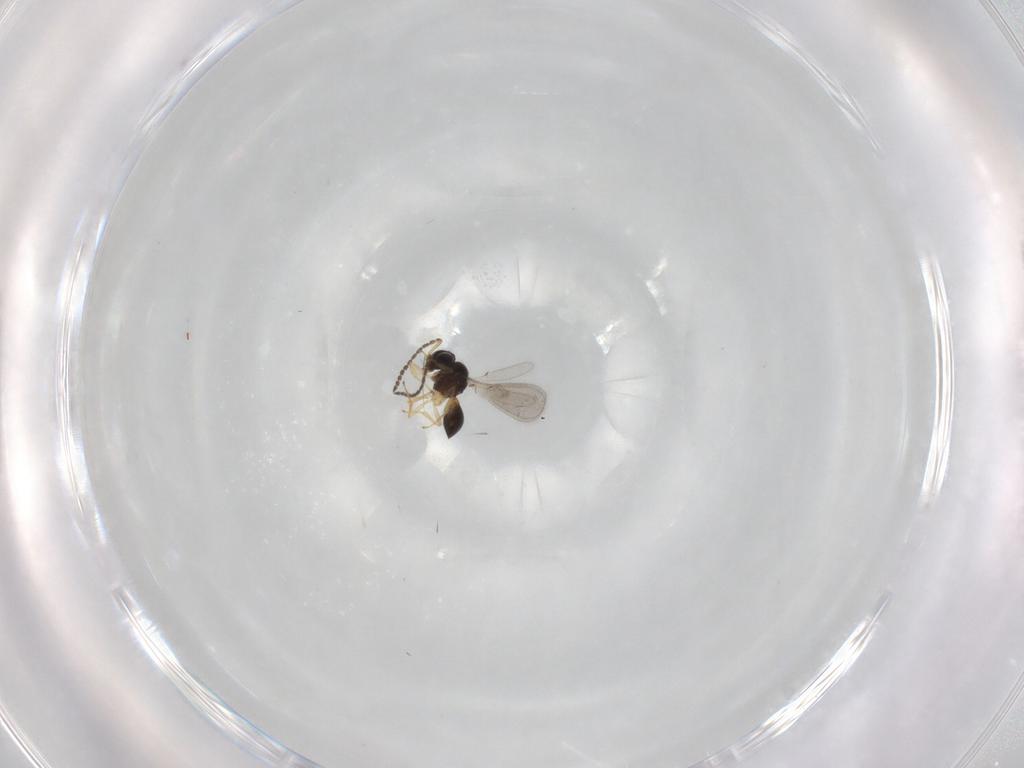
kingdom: Animalia
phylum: Arthropoda
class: Insecta
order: Hymenoptera
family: Scelionidae
